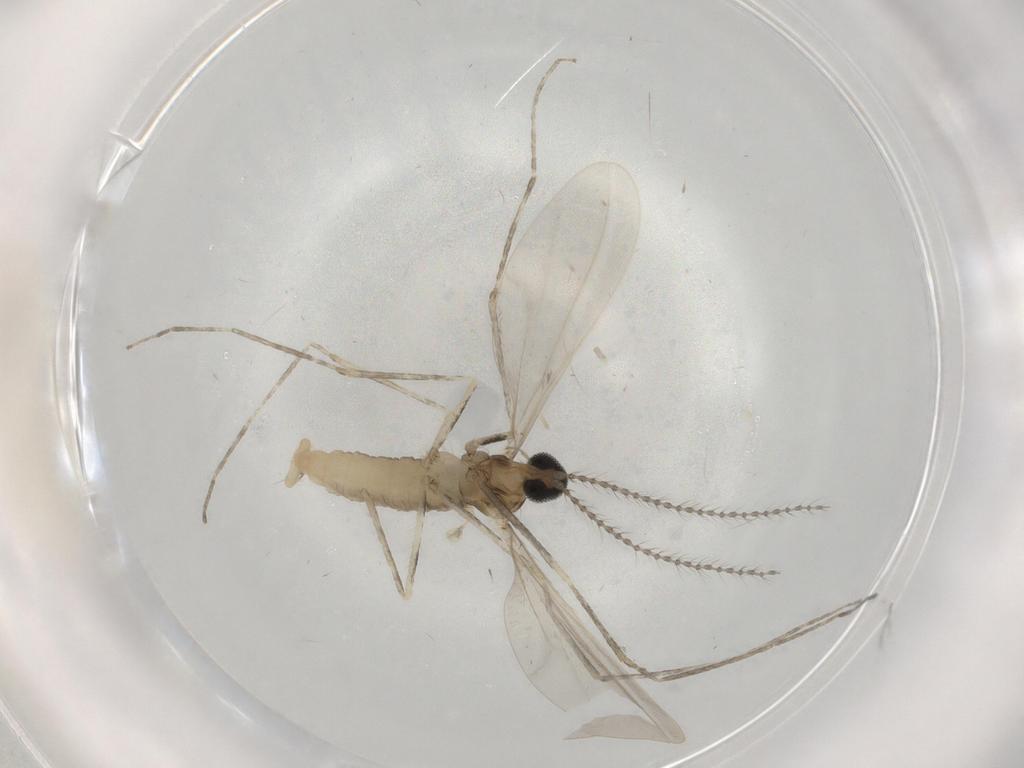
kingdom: Animalia
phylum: Arthropoda
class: Insecta
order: Diptera
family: Cecidomyiidae
